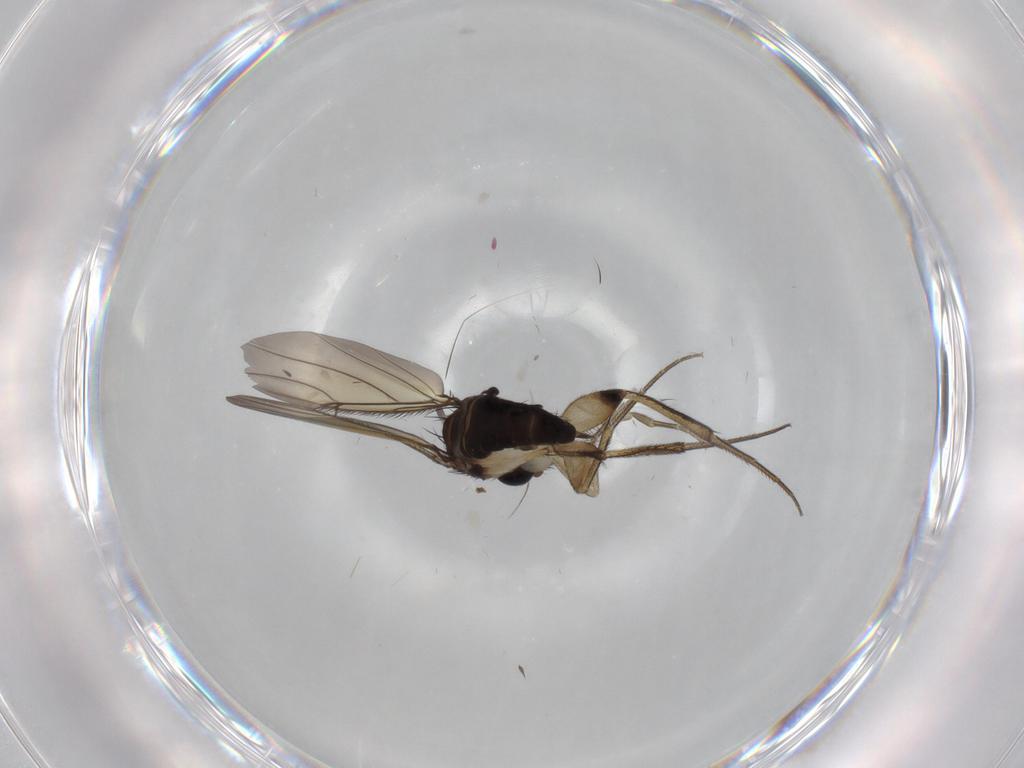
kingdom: Animalia
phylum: Arthropoda
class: Insecta
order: Diptera
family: Phoridae
